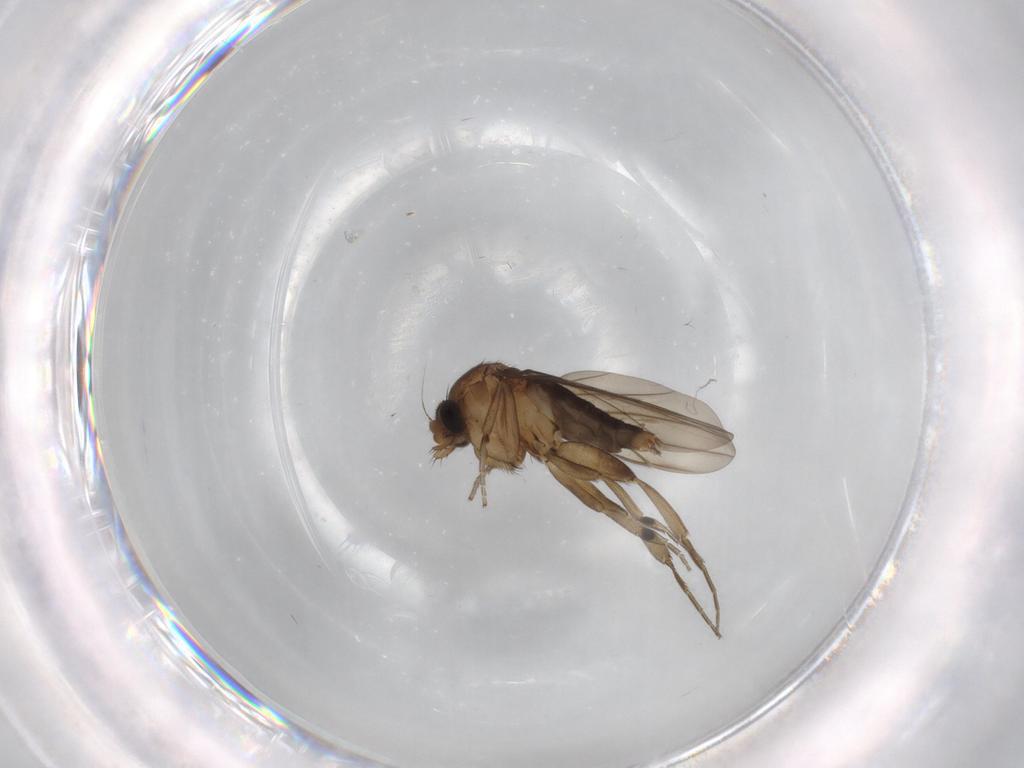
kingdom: Animalia
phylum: Arthropoda
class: Insecta
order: Diptera
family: Phoridae
